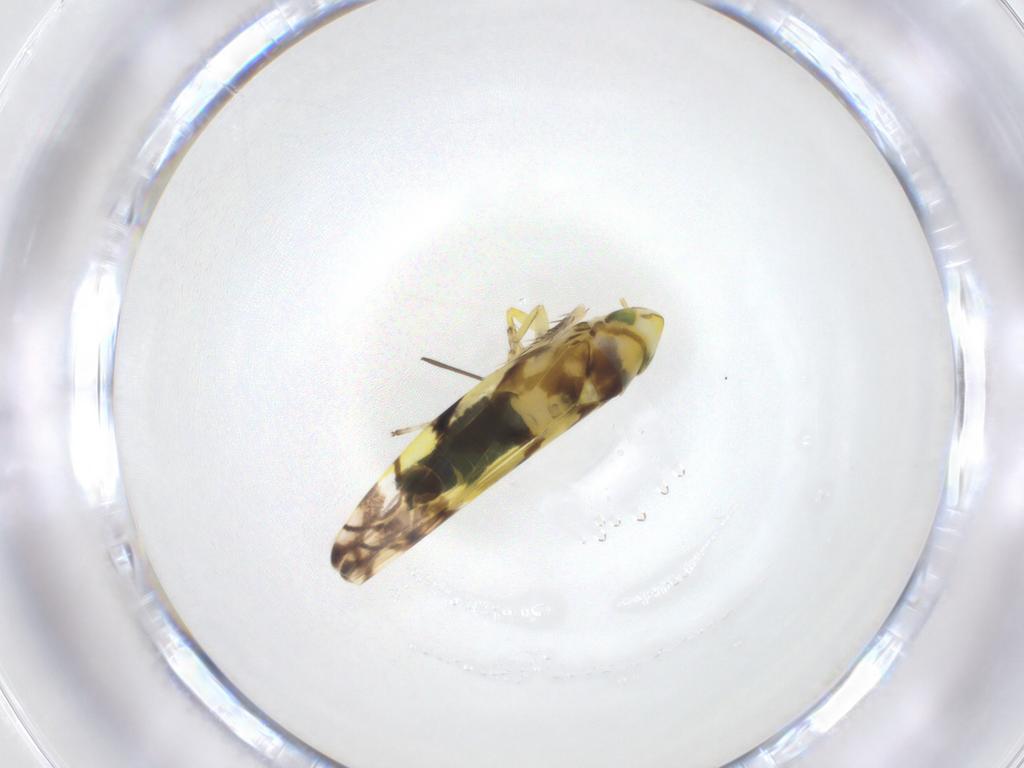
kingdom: Animalia
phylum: Arthropoda
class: Insecta
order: Hemiptera
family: Cicadellidae
